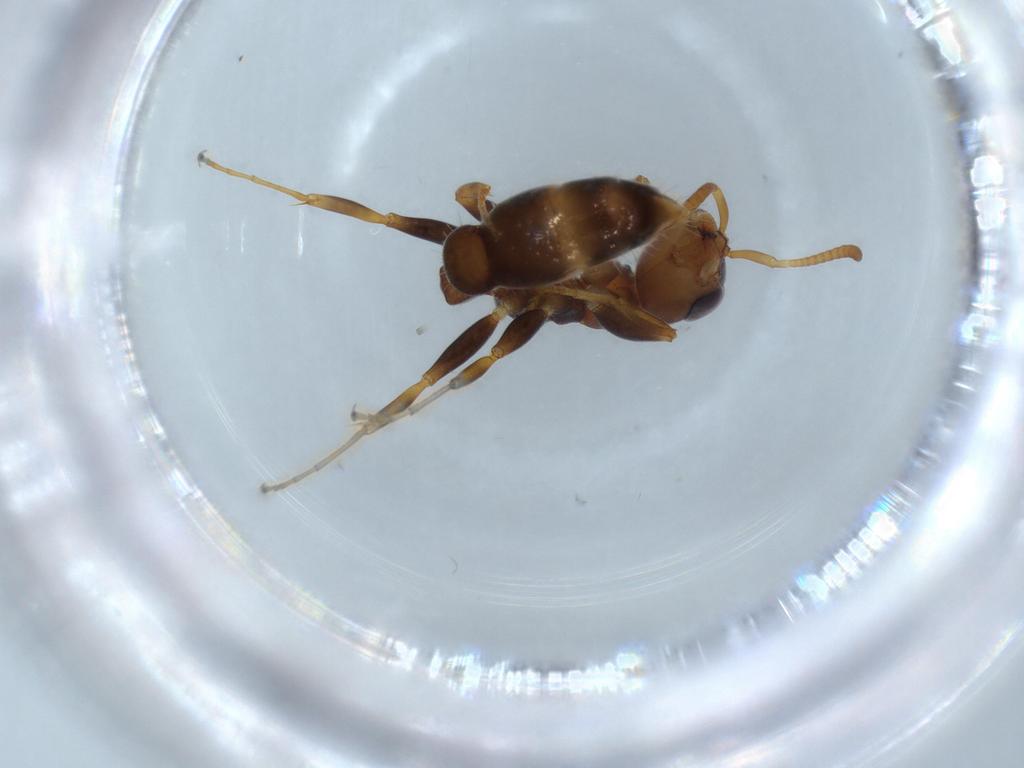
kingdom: Animalia
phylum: Arthropoda
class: Insecta
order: Hymenoptera
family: Formicidae
